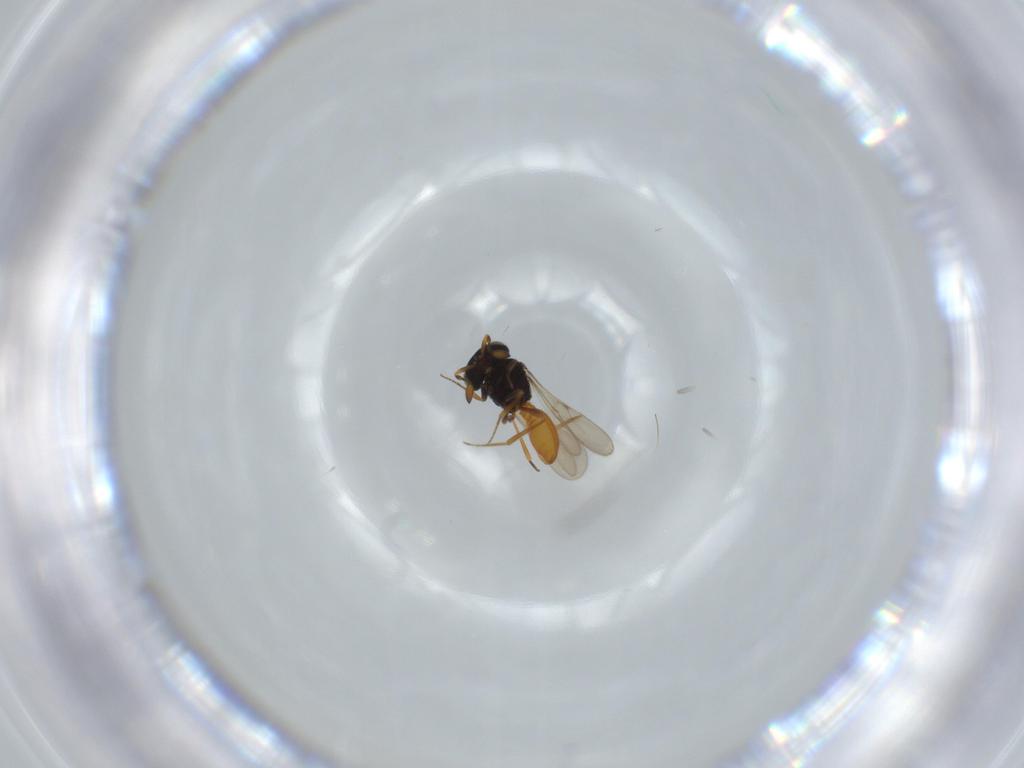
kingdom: Animalia
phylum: Arthropoda
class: Insecta
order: Hymenoptera
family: Scelionidae
